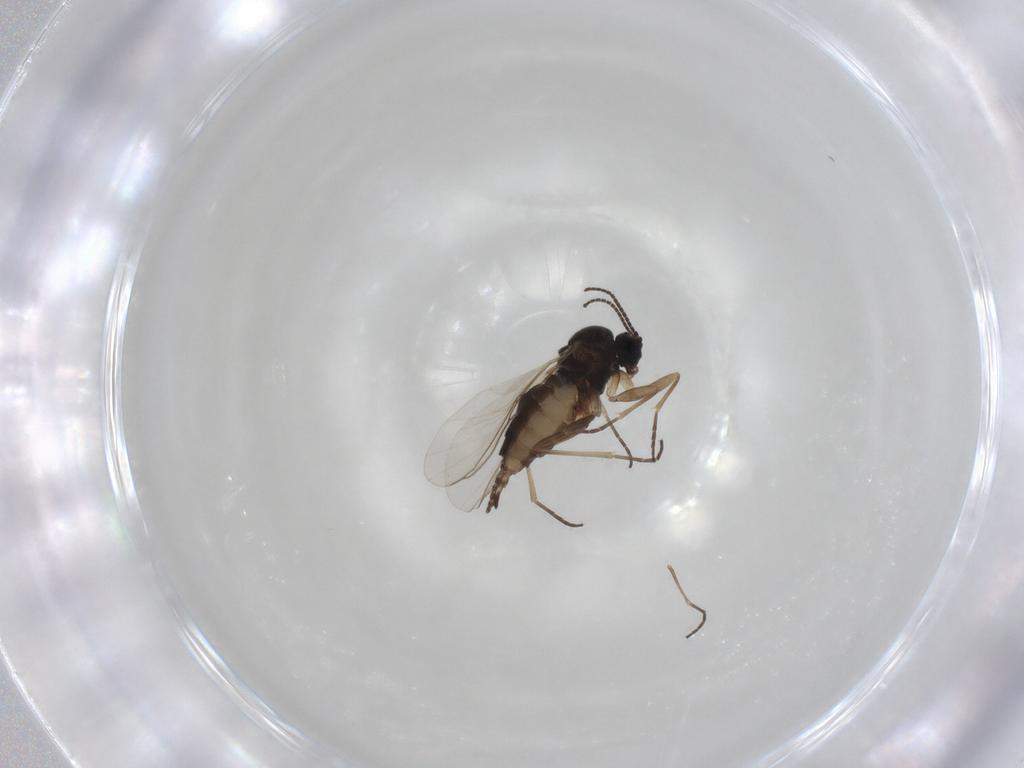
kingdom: Animalia
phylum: Arthropoda
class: Insecta
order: Diptera
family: Sciaridae
